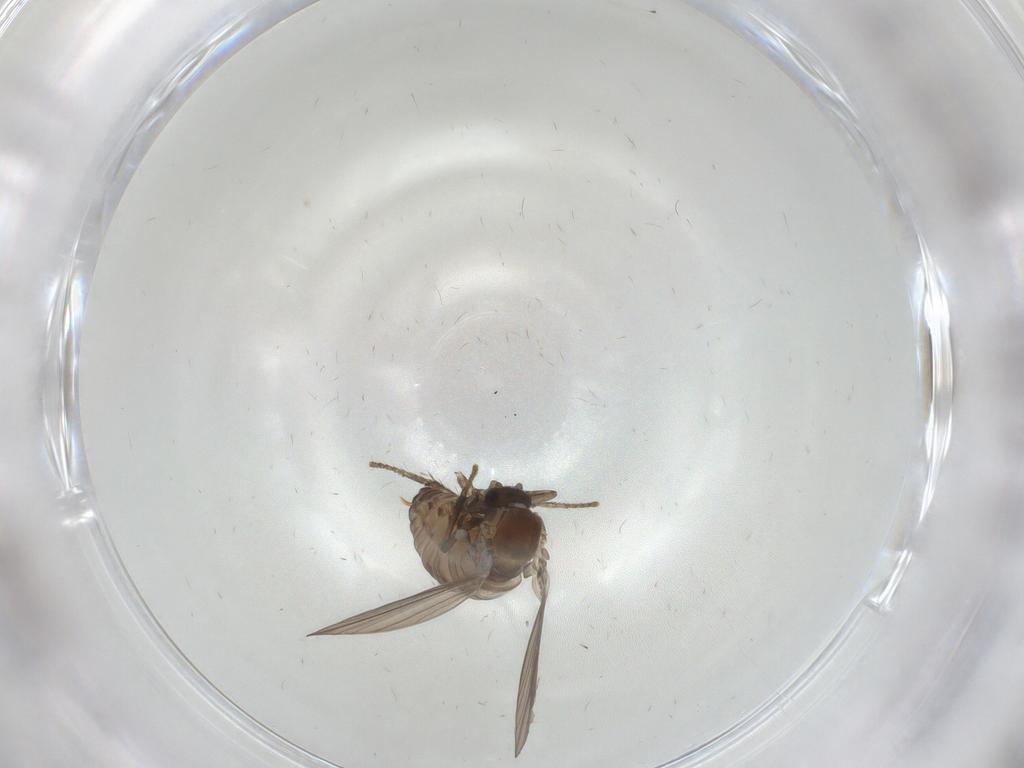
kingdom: Animalia
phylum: Arthropoda
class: Insecta
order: Diptera
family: Psychodidae
